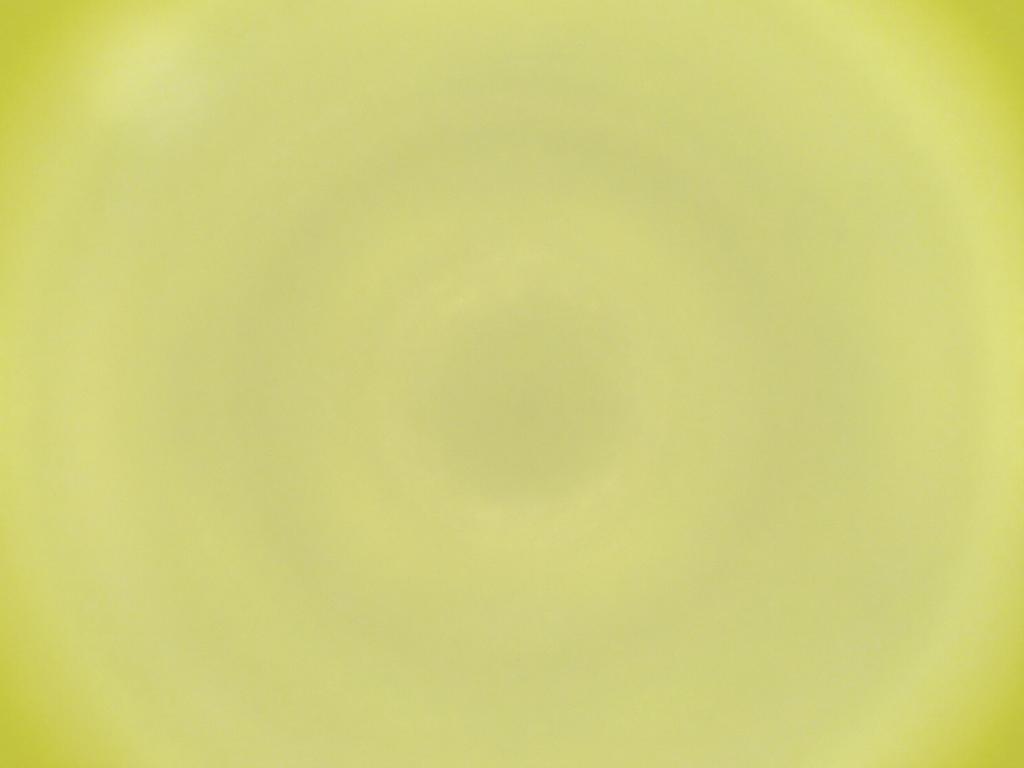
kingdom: Animalia
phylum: Arthropoda
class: Insecta
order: Diptera
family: Cecidomyiidae
